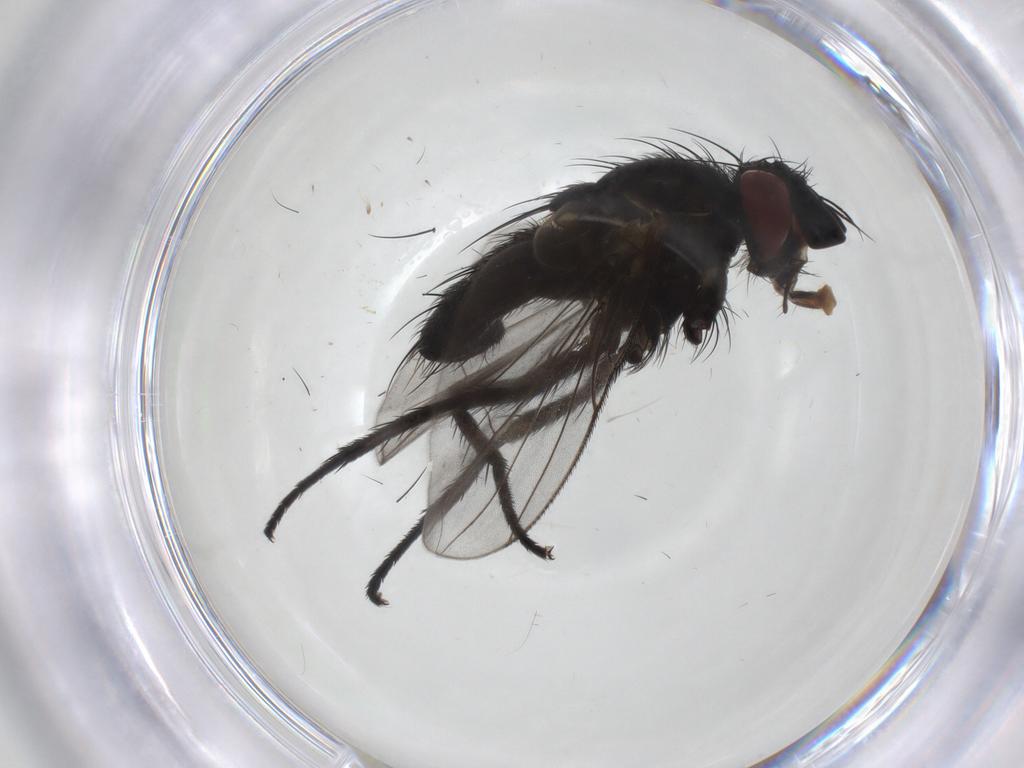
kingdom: Animalia
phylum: Arthropoda
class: Insecta
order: Diptera
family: Tachinidae
